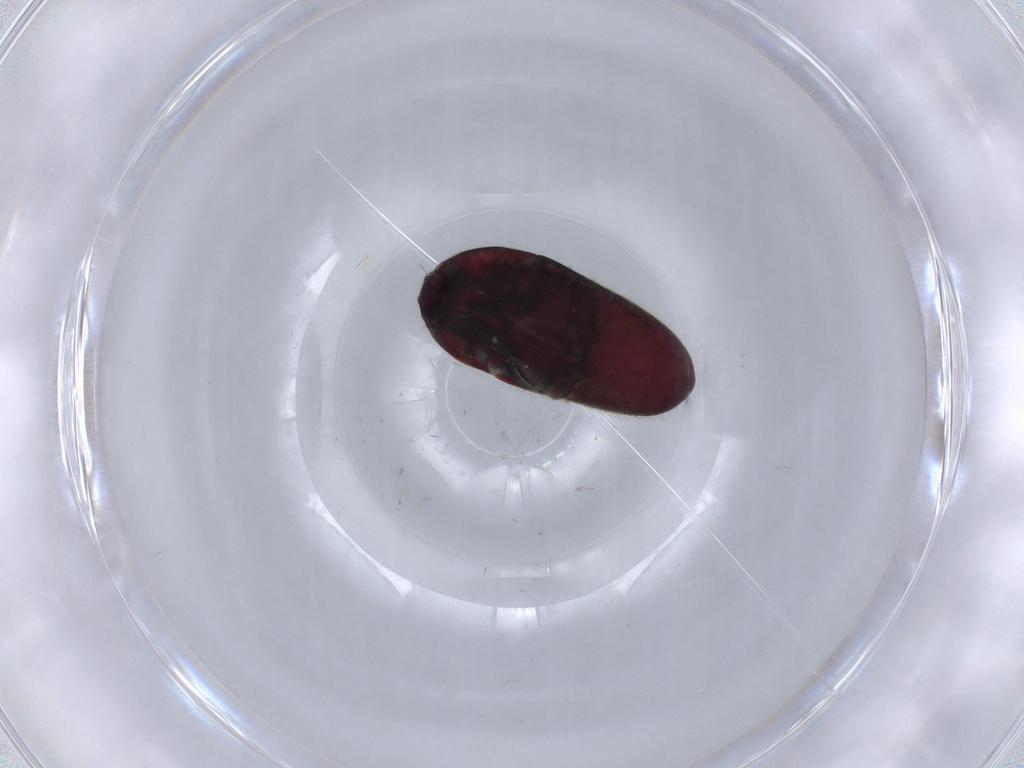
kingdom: Animalia
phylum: Arthropoda
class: Insecta
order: Coleoptera
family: Throscidae
